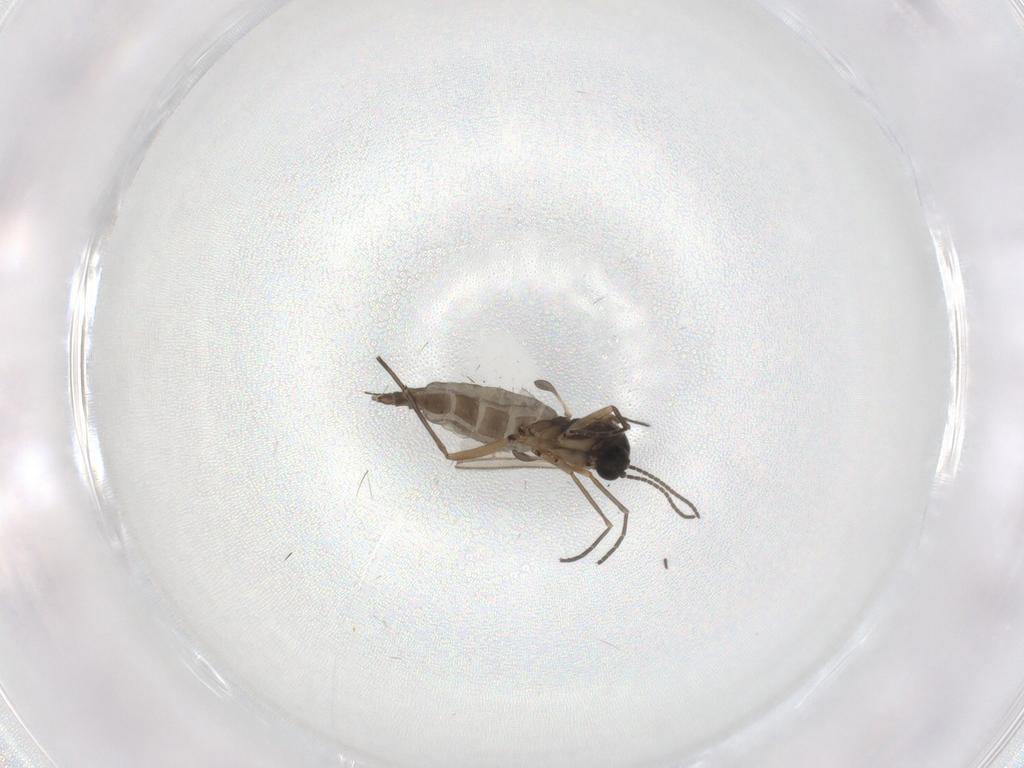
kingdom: Animalia
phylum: Arthropoda
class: Insecta
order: Diptera
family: Sciaridae
